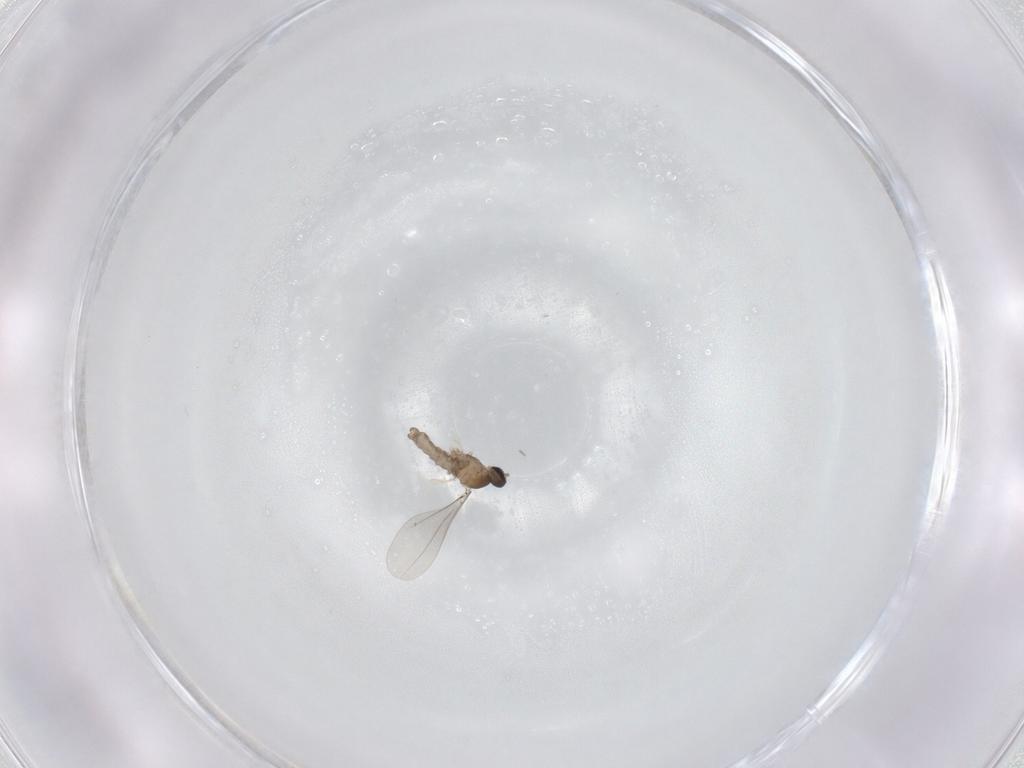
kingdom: Animalia
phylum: Arthropoda
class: Insecta
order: Diptera
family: Sciaridae
